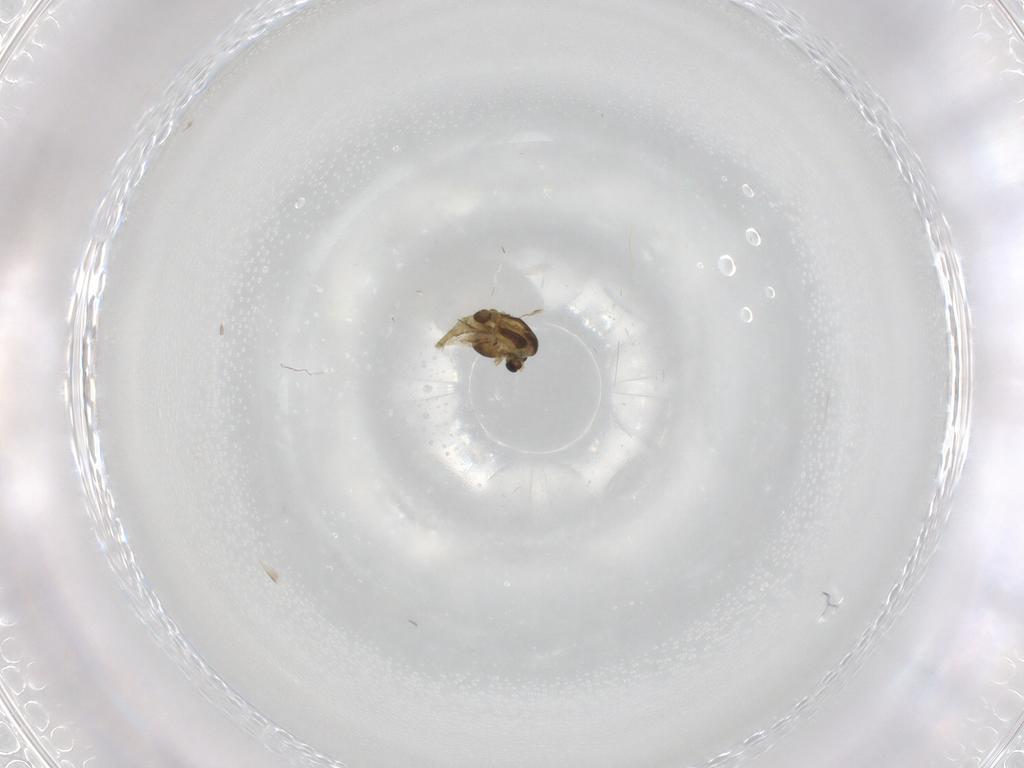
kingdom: Animalia
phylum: Arthropoda
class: Insecta
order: Diptera
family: Chironomidae
